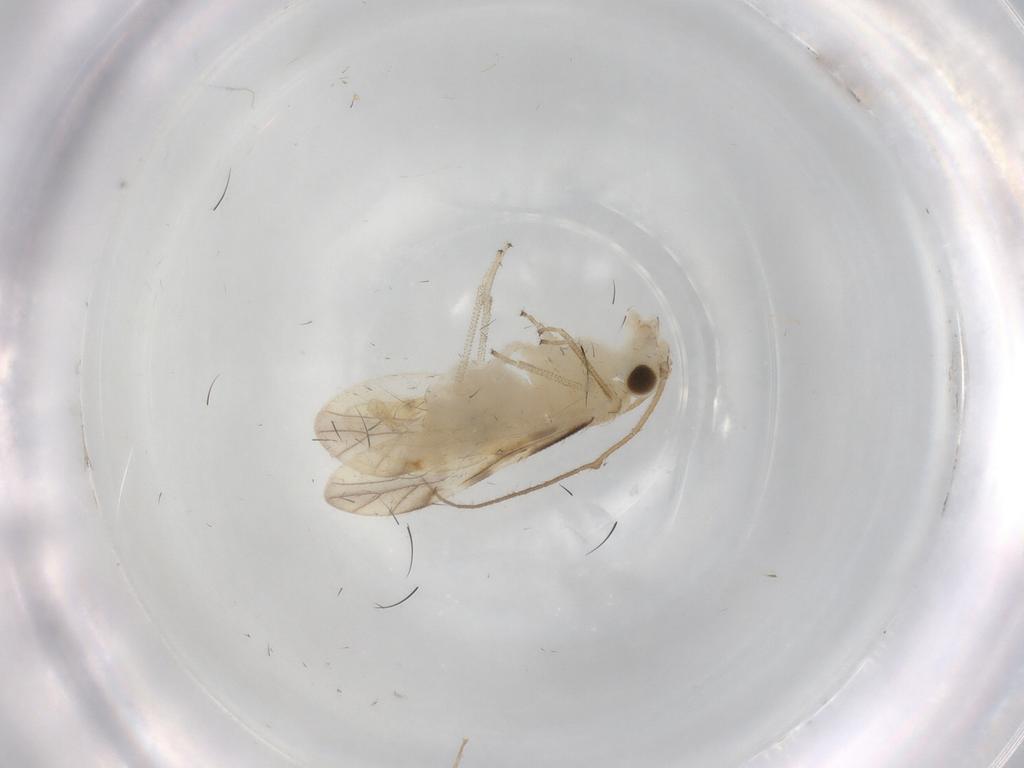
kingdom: Animalia
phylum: Arthropoda
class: Insecta
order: Psocodea
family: Caeciliusidae
